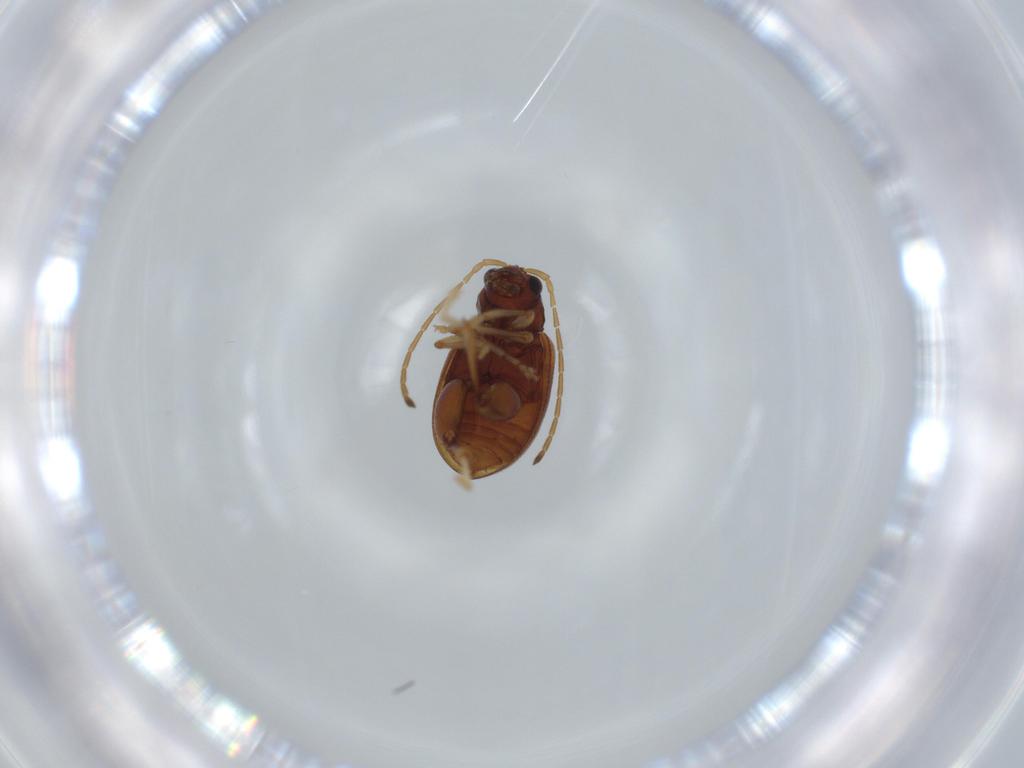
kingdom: Animalia
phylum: Arthropoda
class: Insecta
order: Coleoptera
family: Chrysomelidae
